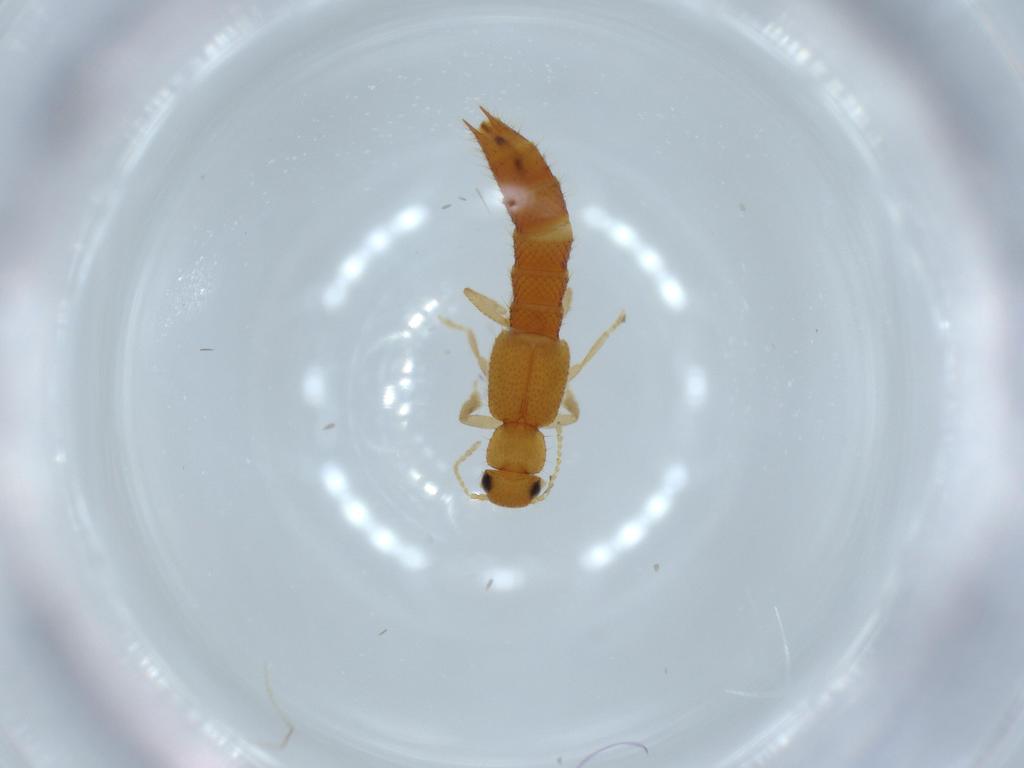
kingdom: Animalia
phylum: Arthropoda
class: Insecta
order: Coleoptera
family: Staphylinidae
